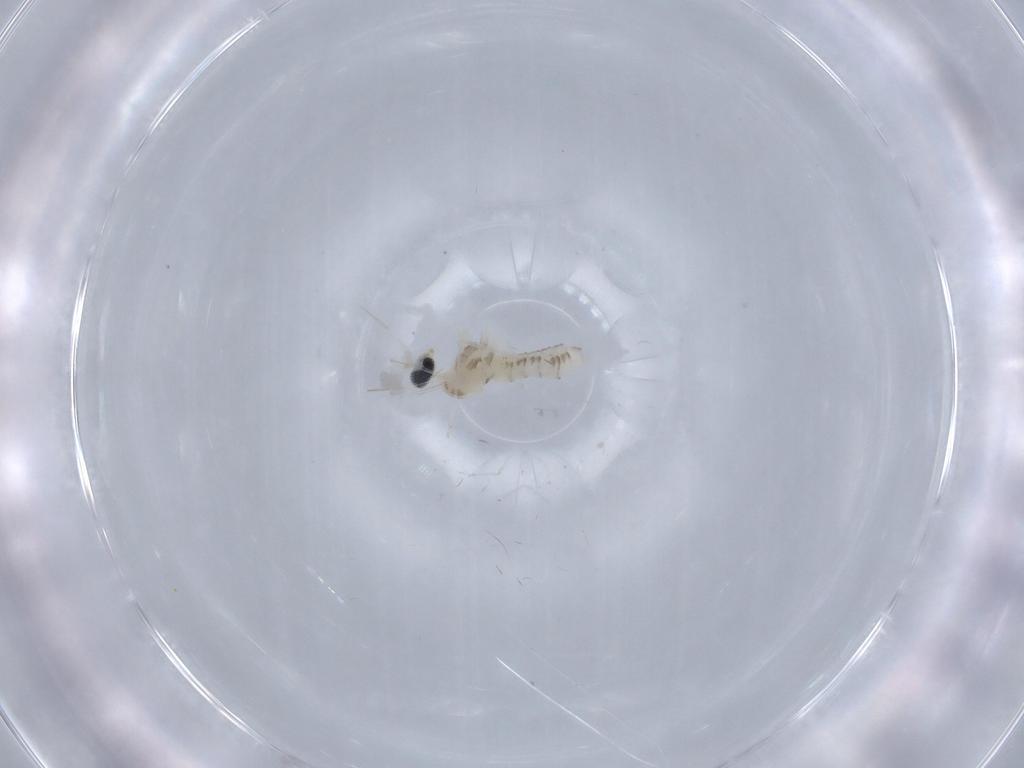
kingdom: Animalia
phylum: Arthropoda
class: Insecta
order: Diptera
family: Cecidomyiidae
